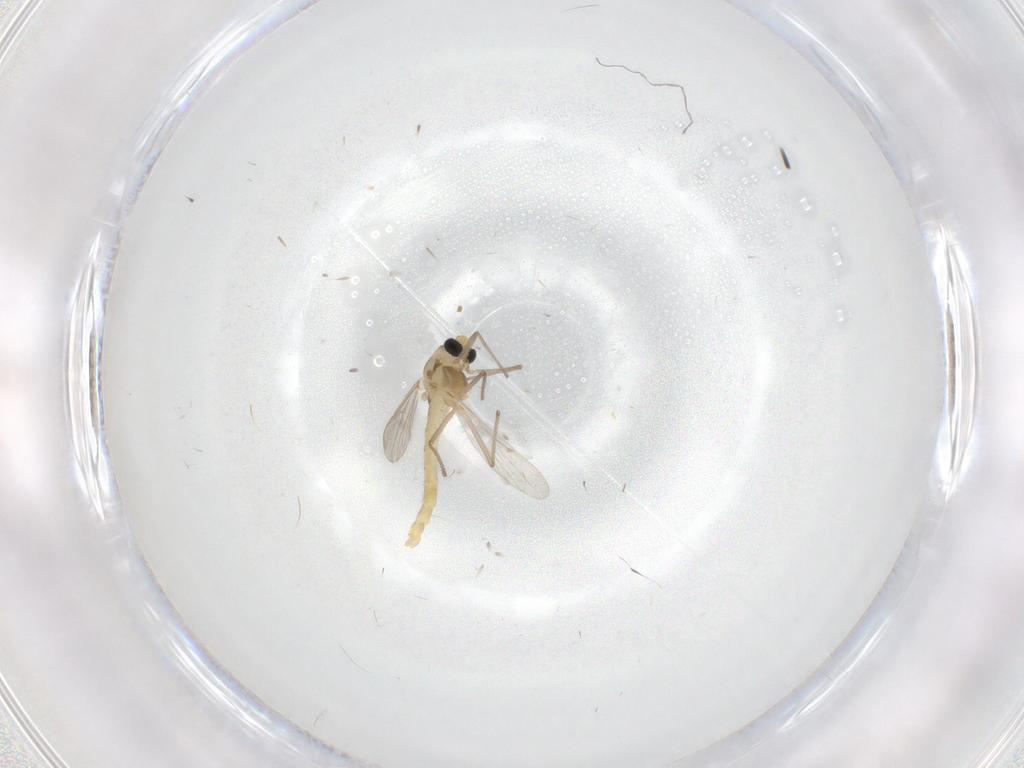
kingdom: Animalia
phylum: Arthropoda
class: Insecta
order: Diptera
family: Chironomidae
